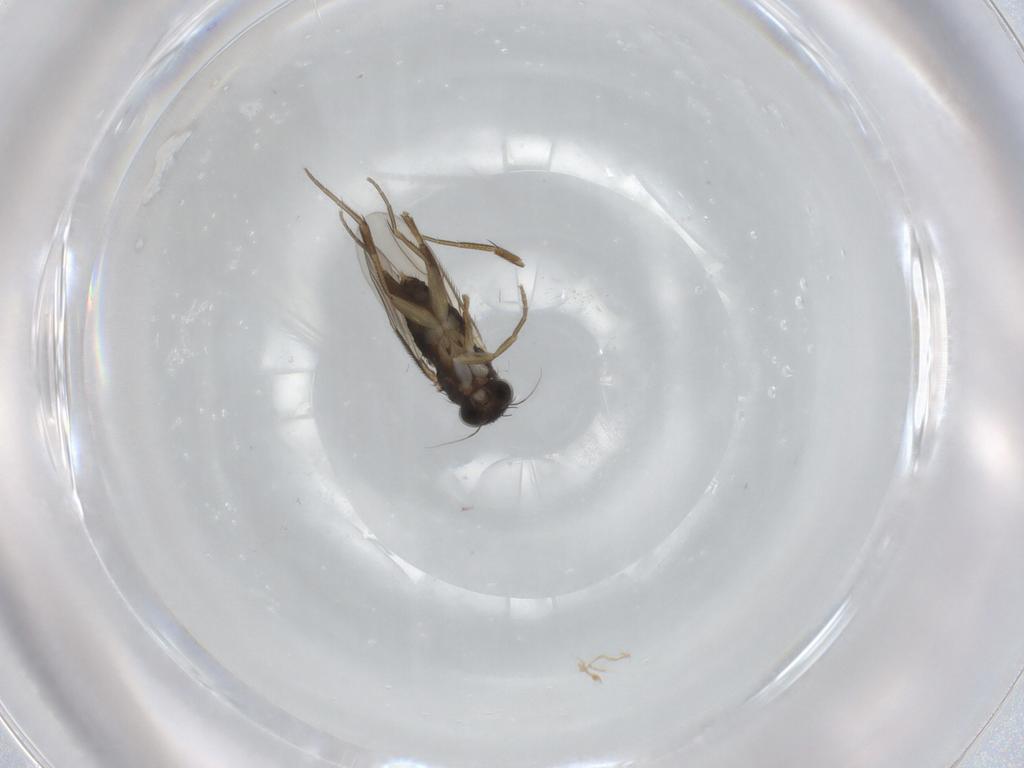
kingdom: Animalia
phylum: Arthropoda
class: Insecta
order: Diptera
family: Phoridae
